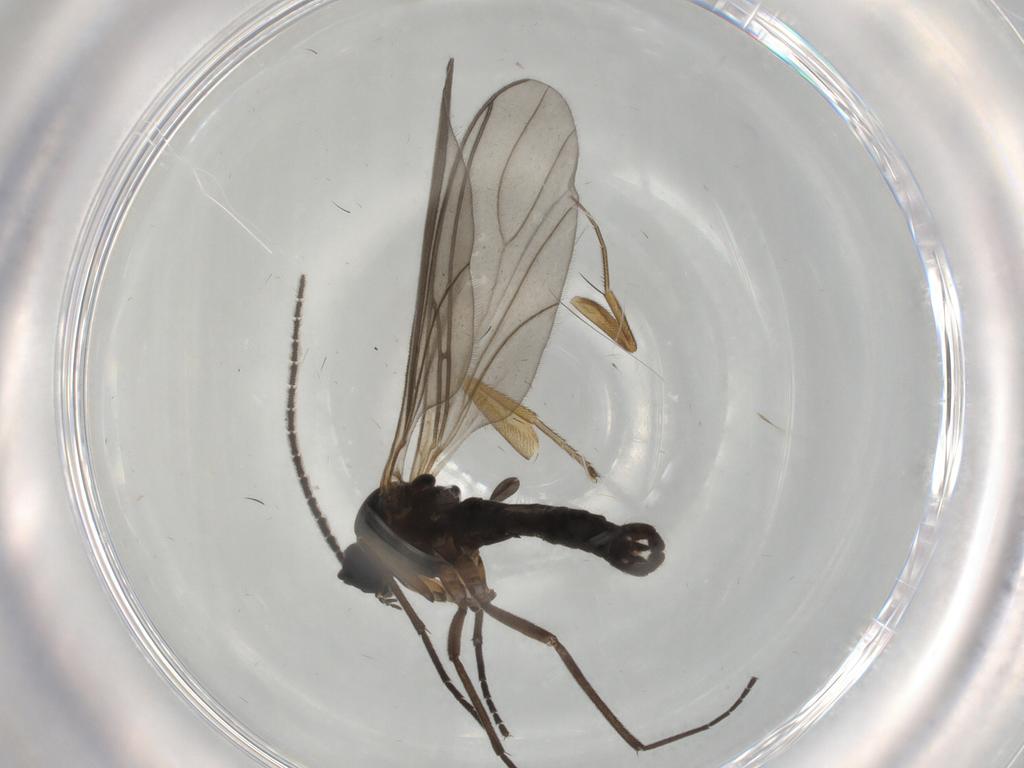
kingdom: Animalia
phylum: Arthropoda
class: Insecta
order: Diptera
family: Sciaridae
